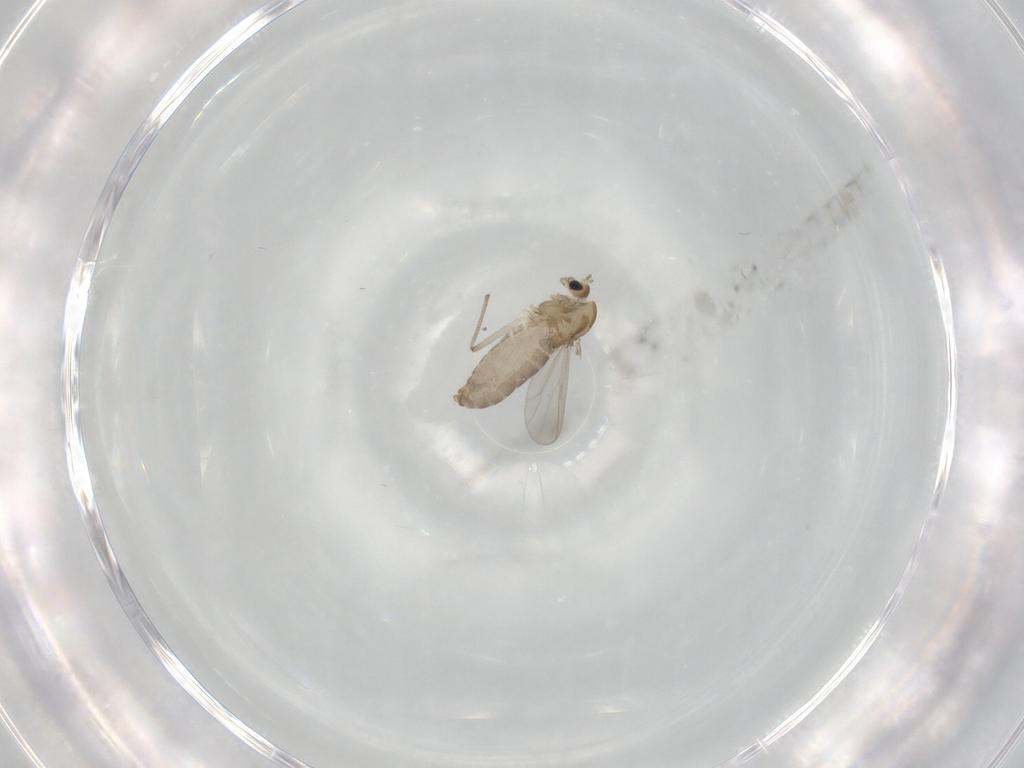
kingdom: Animalia
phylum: Arthropoda
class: Insecta
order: Diptera
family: Chironomidae
